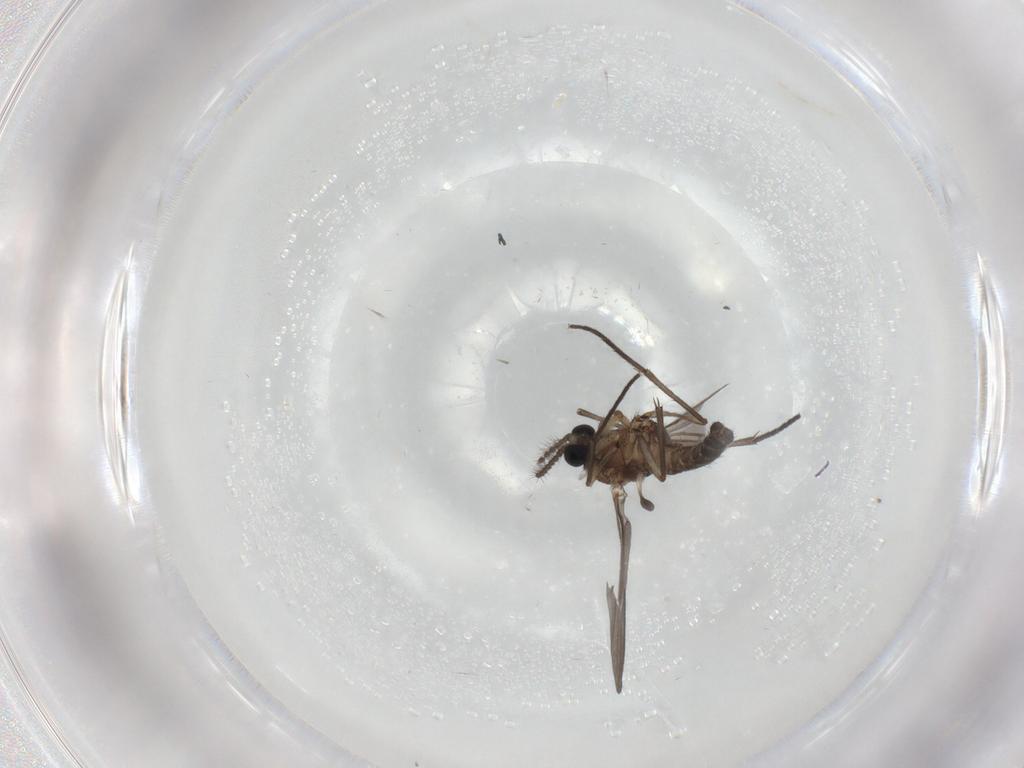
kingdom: Animalia
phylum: Arthropoda
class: Insecta
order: Diptera
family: Sciaridae
